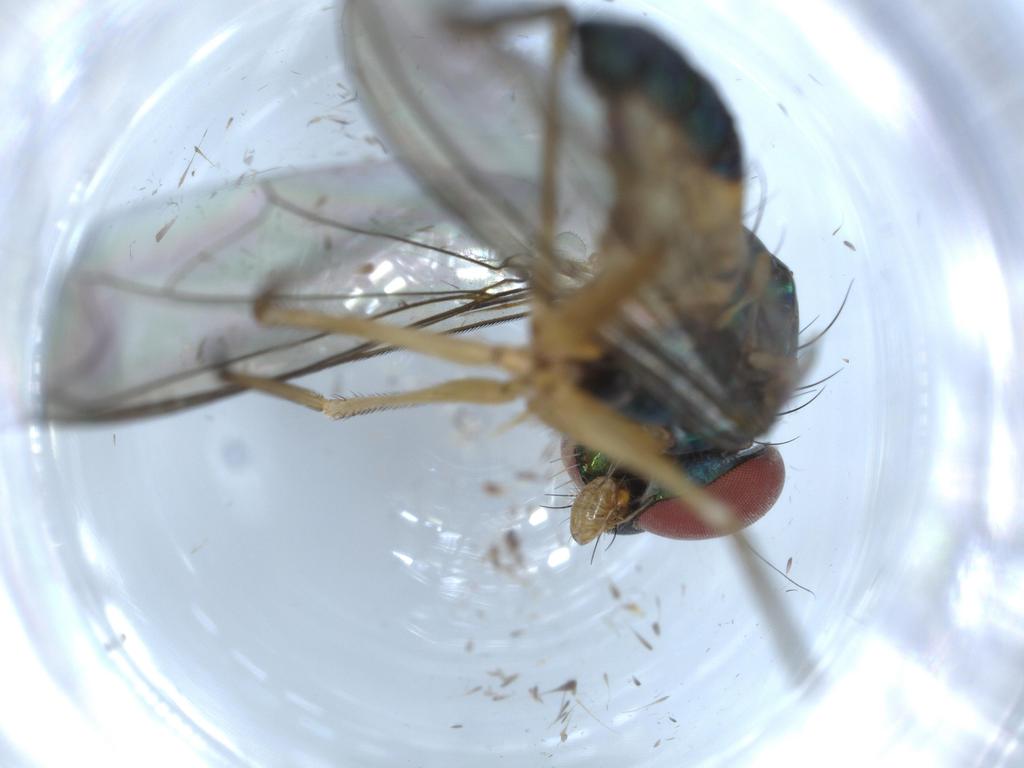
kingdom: Animalia
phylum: Arthropoda
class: Insecta
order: Diptera
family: Dolichopodidae
